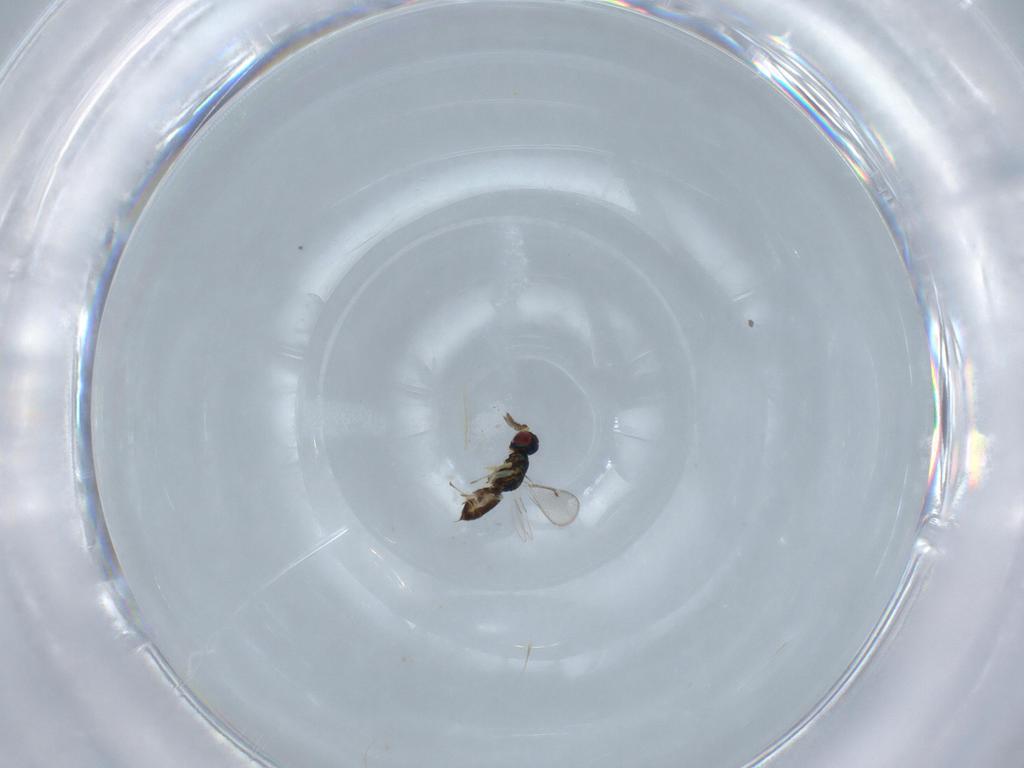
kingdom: Animalia
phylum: Arthropoda
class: Insecta
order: Hymenoptera
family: Eulophidae
